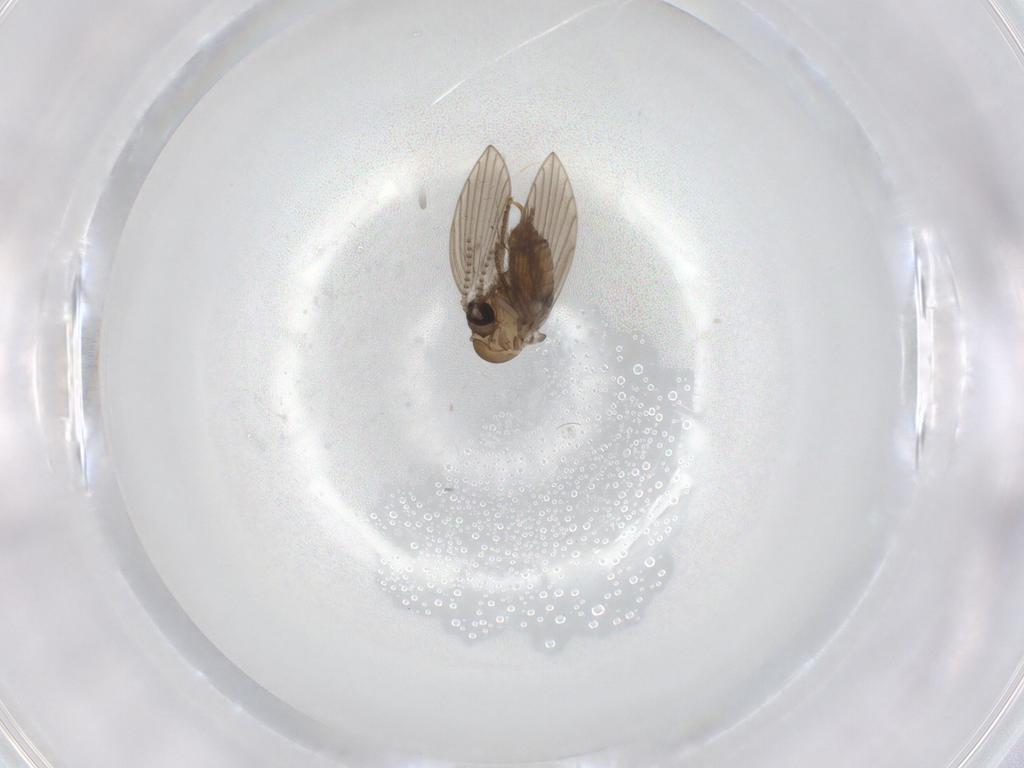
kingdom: Animalia
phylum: Arthropoda
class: Insecta
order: Diptera
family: Psychodidae
